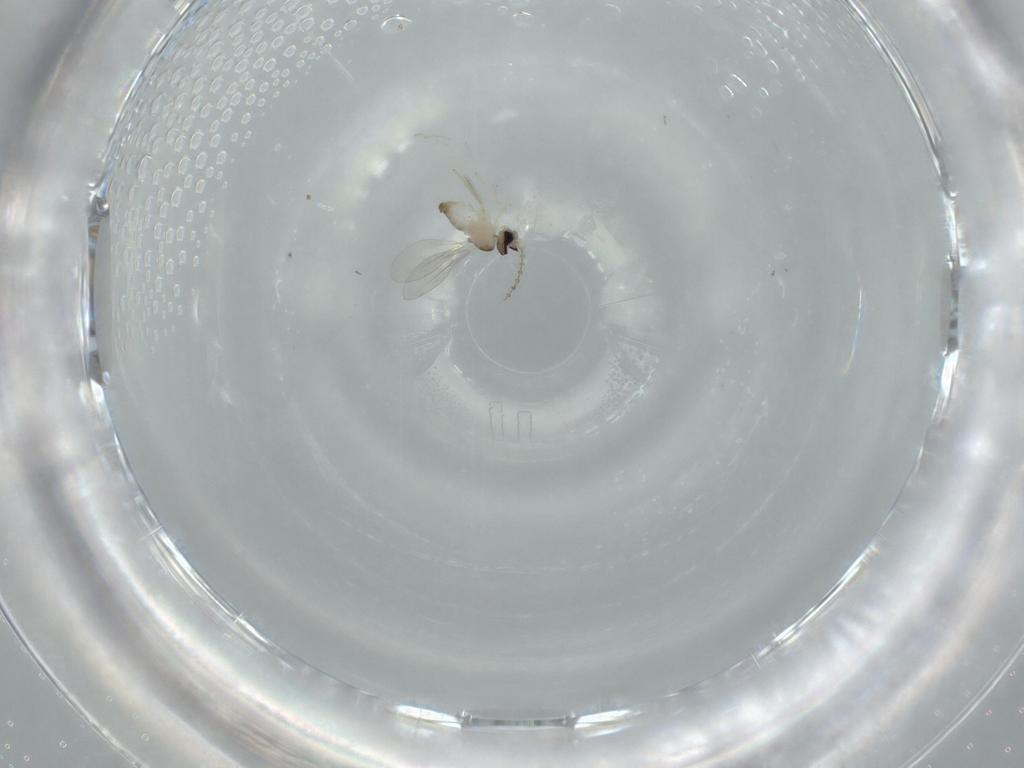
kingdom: Animalia
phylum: Arthropoda
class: Insecta
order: Diptera
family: Cecidomyiidae
